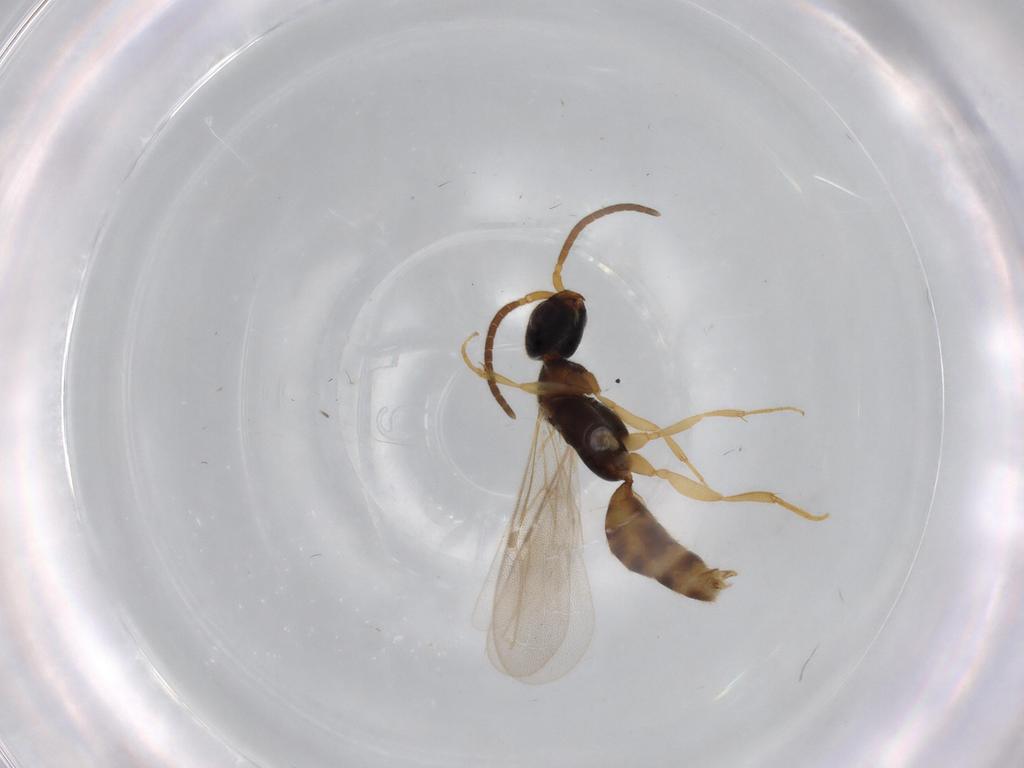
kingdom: Animalia
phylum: Arthropoda
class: Insecta
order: Hymenoptera
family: Bethylidae
